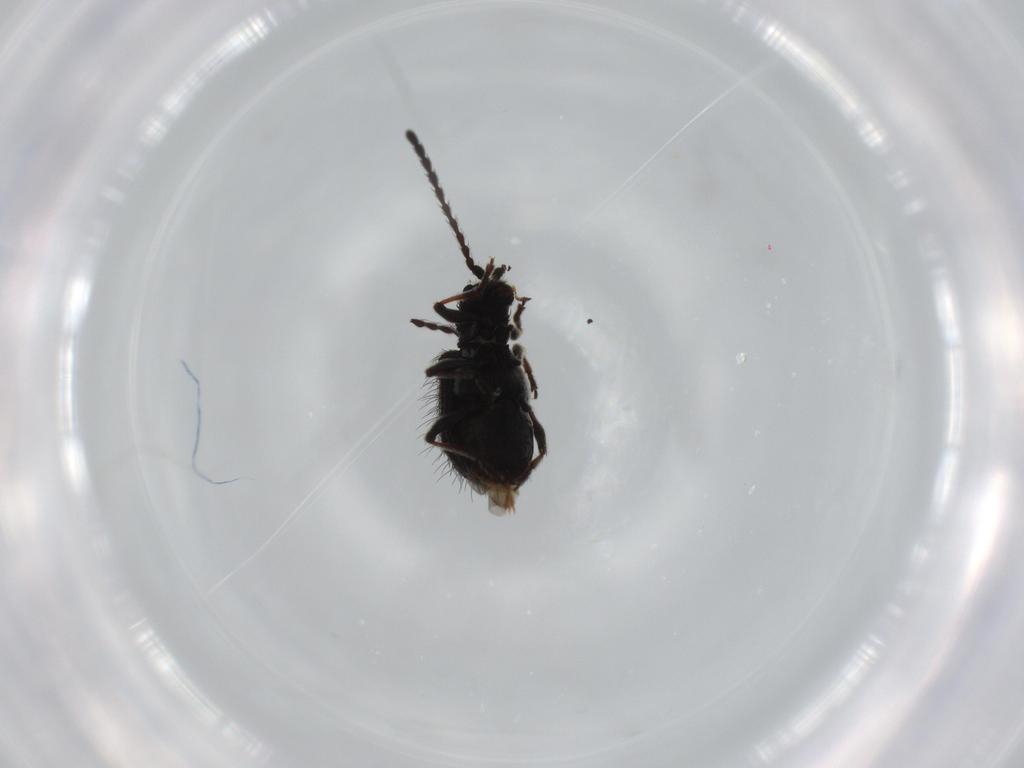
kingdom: Animalia
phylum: Arthropoda
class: Insecta
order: Coleoptera
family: Ptinidae
